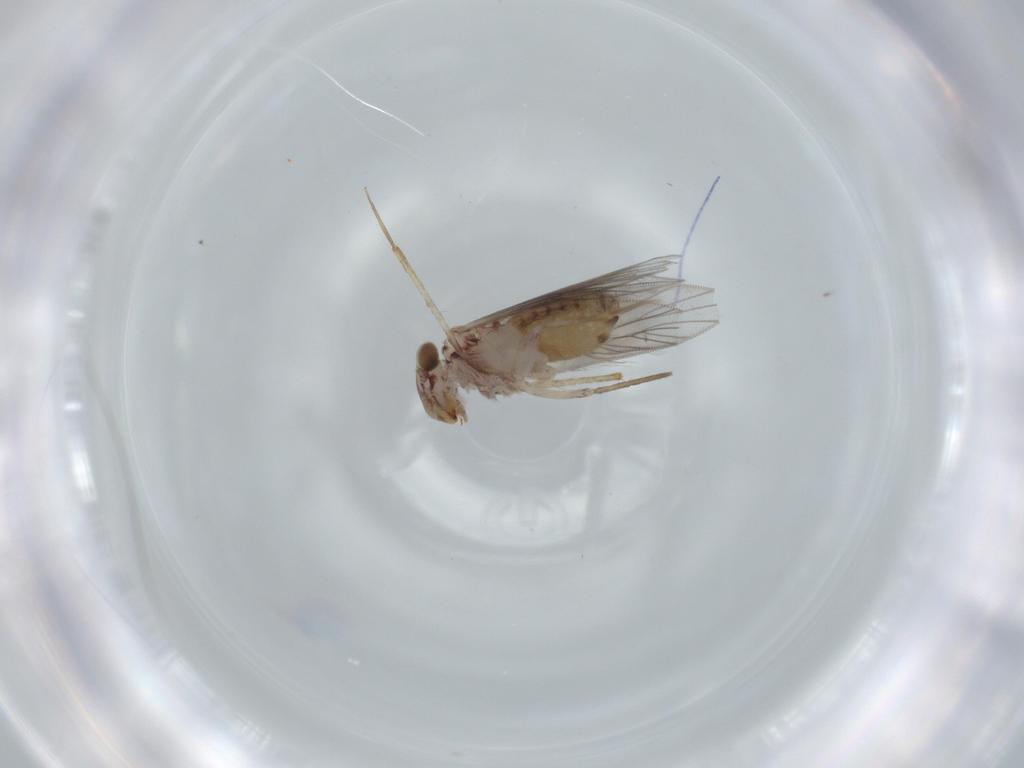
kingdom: Animalia
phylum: Arthropoda
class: Insecta
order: Psocodea
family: Lepidopsocidae
